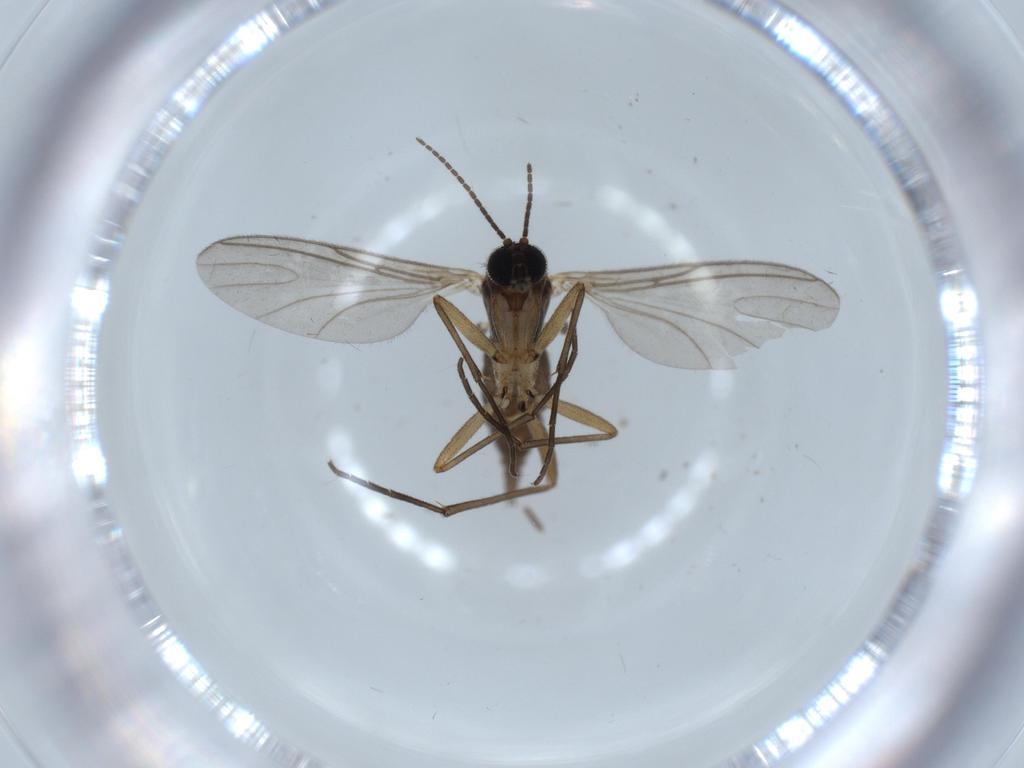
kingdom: Animalia
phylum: Arthropoda
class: Insecta
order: Diptera
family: Sciaridae
